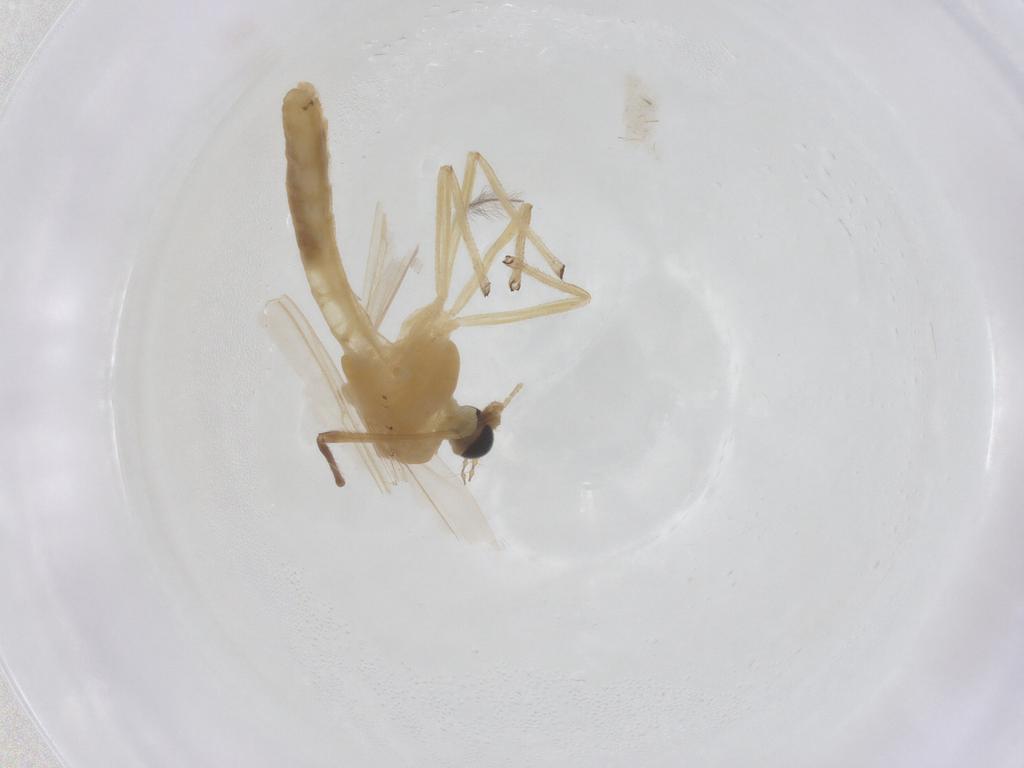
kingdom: Animalia
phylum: Arthropoda
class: Insecta
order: Diptera
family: Chironomidae
